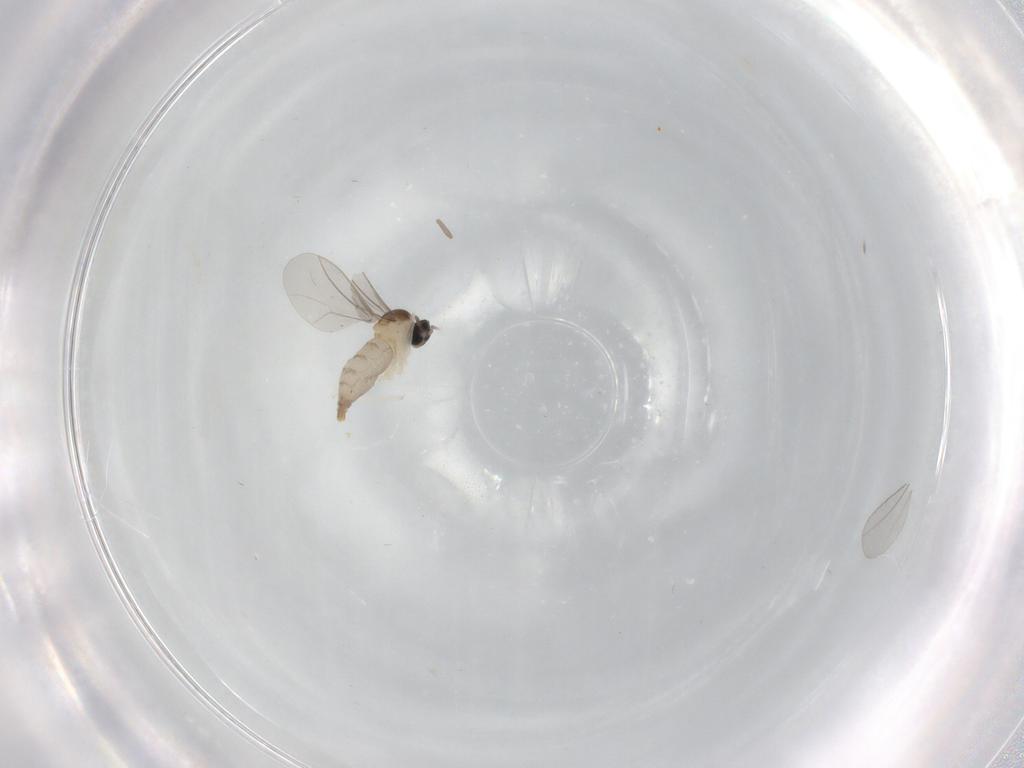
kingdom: Animalia
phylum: Arthropoda
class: Insecta
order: Diptera
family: Cecidomyiidae
